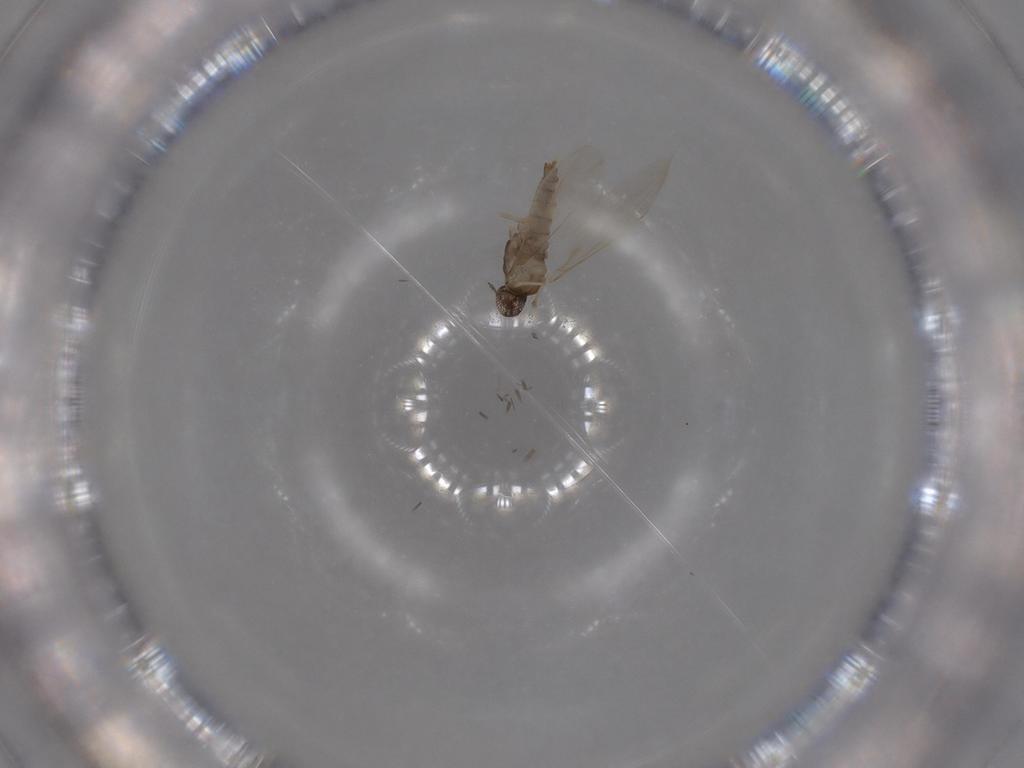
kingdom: Animalia
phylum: Arthropoda
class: Insecta
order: Diptera
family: Cecidomyiidae
